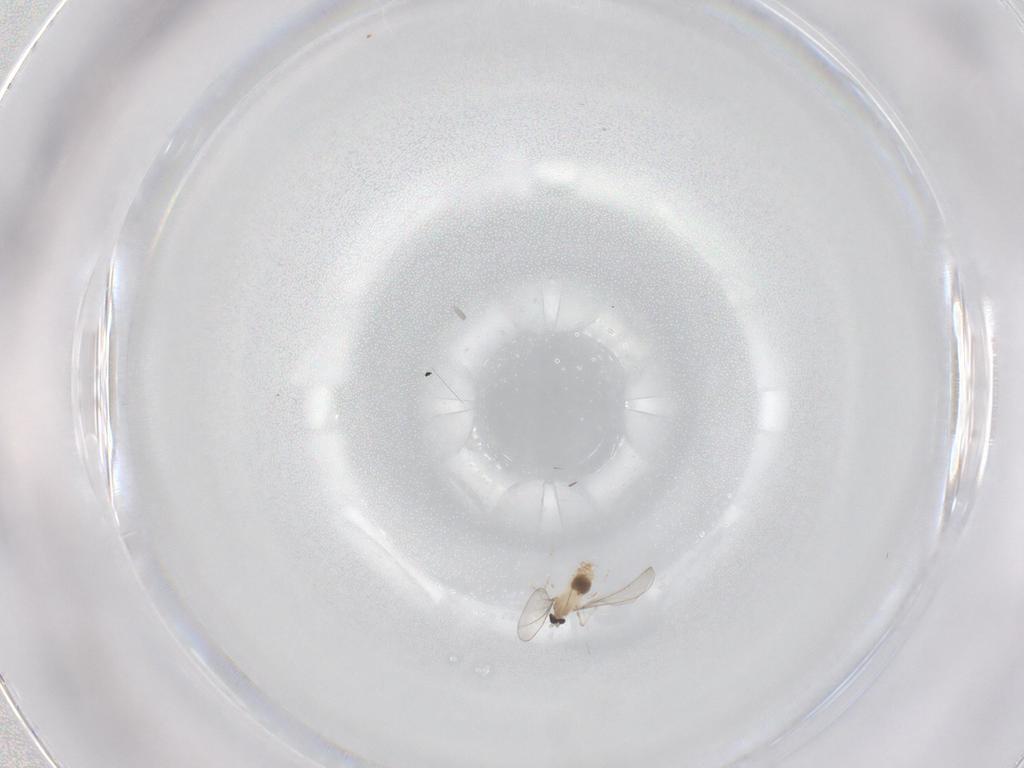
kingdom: Animalia
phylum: Arthropoda
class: Insecta
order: Diptera
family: Cecidomyiidae
